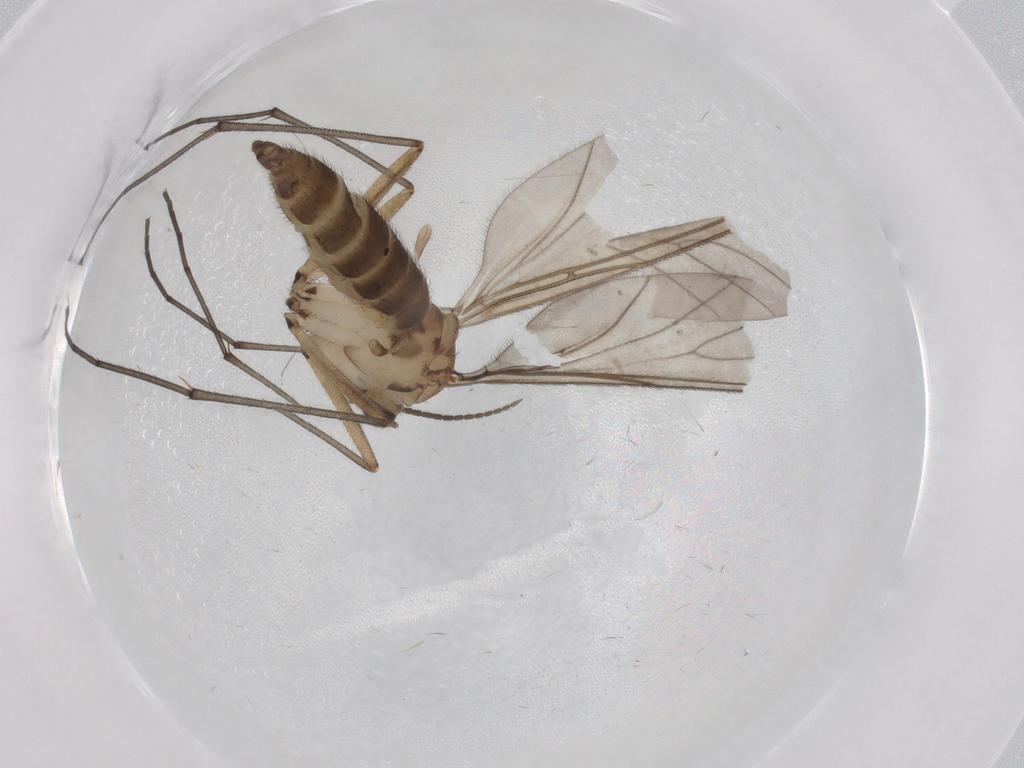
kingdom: Animalia
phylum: Arthropoda
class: Insecta
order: Diptera
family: Sciaridae
